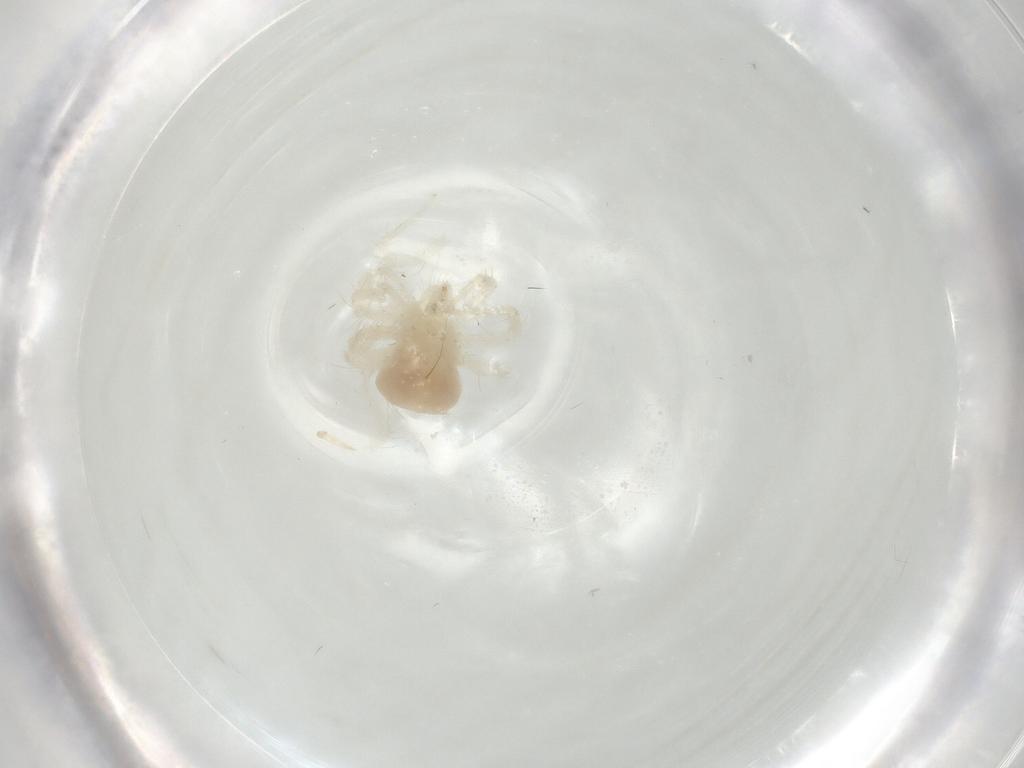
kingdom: Animalia
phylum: Arthropoda
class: Arachnida
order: Trombidiformes
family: Anystidae
